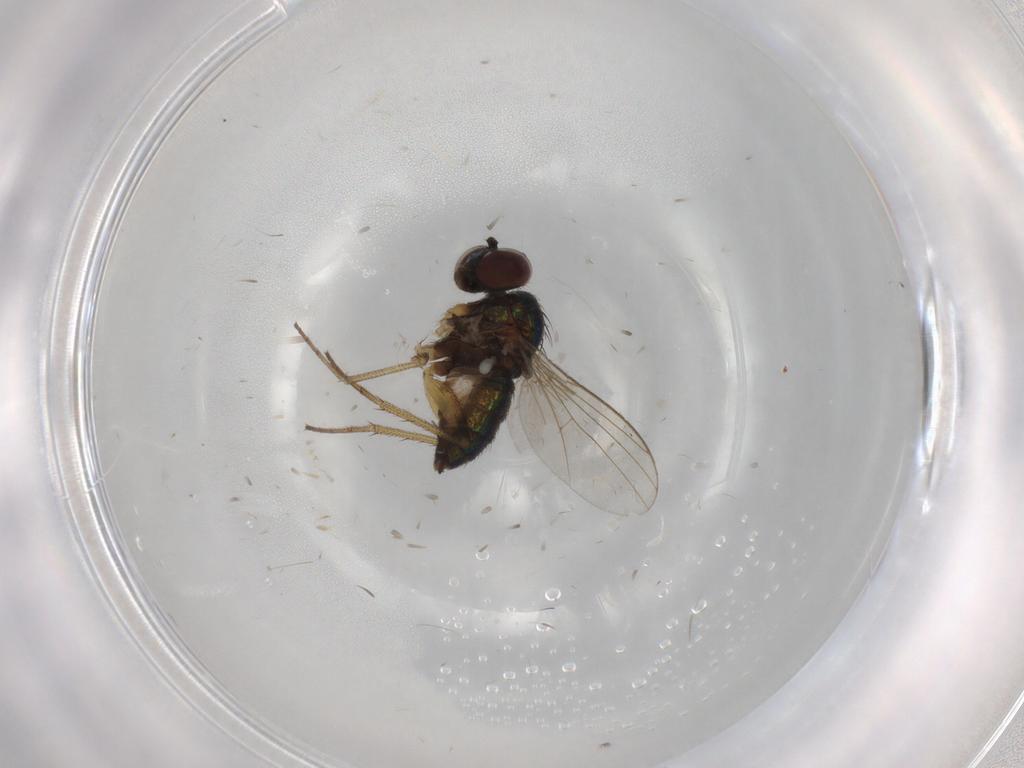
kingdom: Animalia
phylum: Arthropoda
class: Insecta
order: Diptera
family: Dolichopodidae
